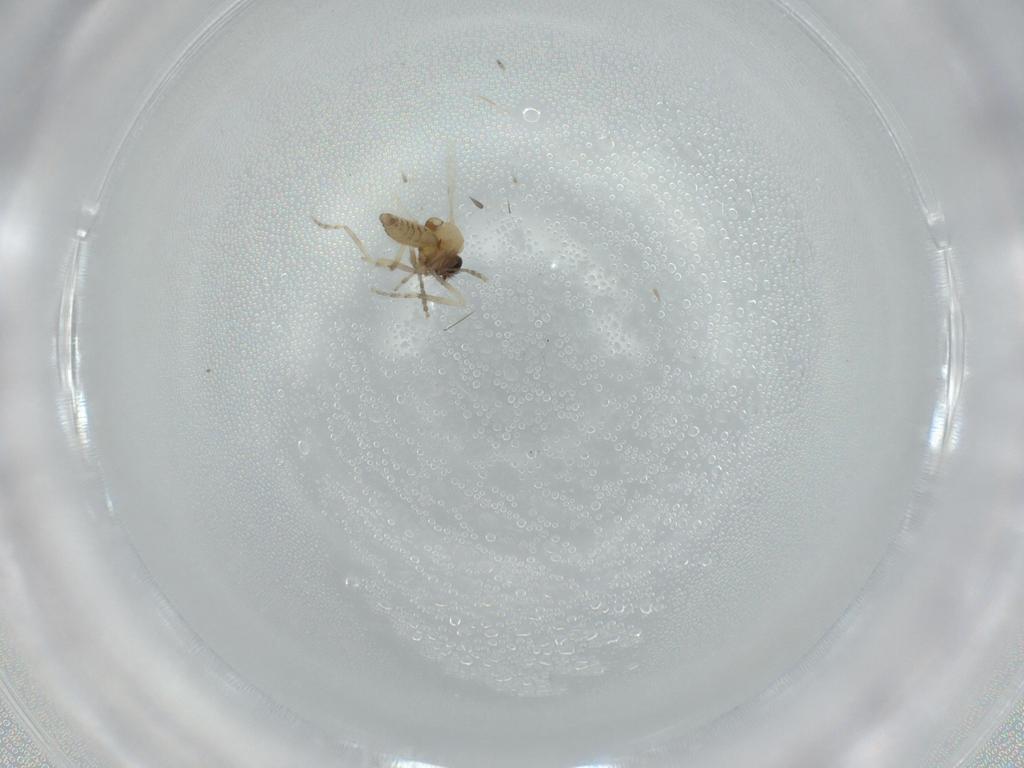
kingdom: Animalia
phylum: Arthropoda
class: Insecta
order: Diptera
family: Ceratopogonidae
